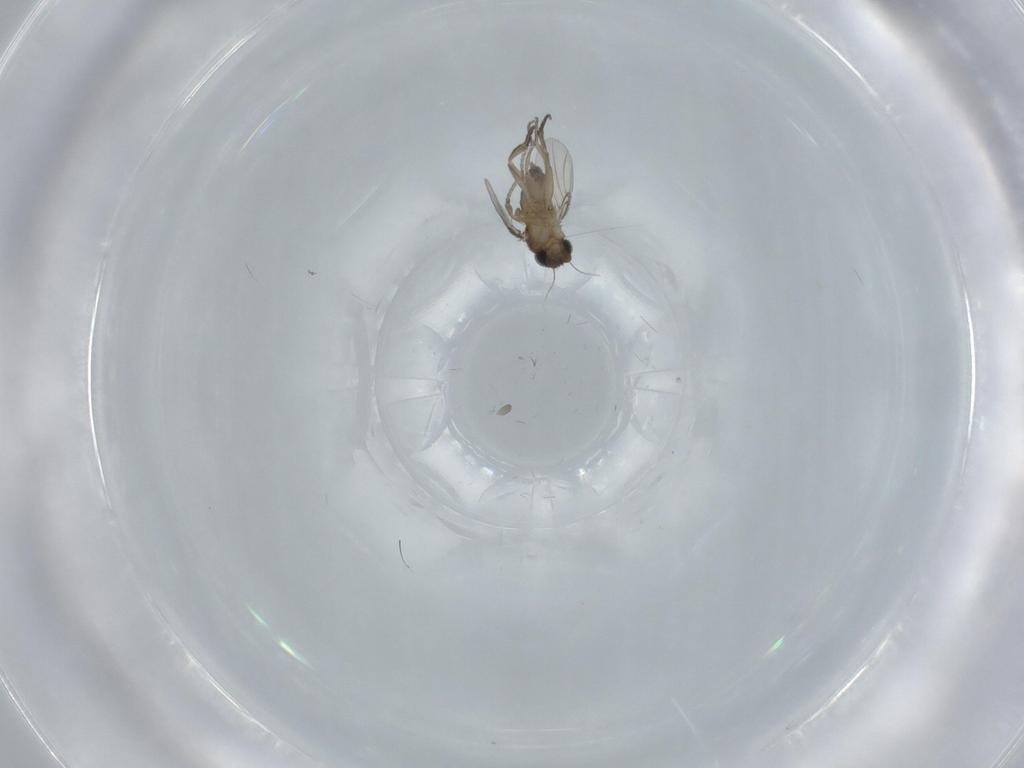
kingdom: Animalia
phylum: Arthropoda
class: Insecta
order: Diptera
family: Phoridae
